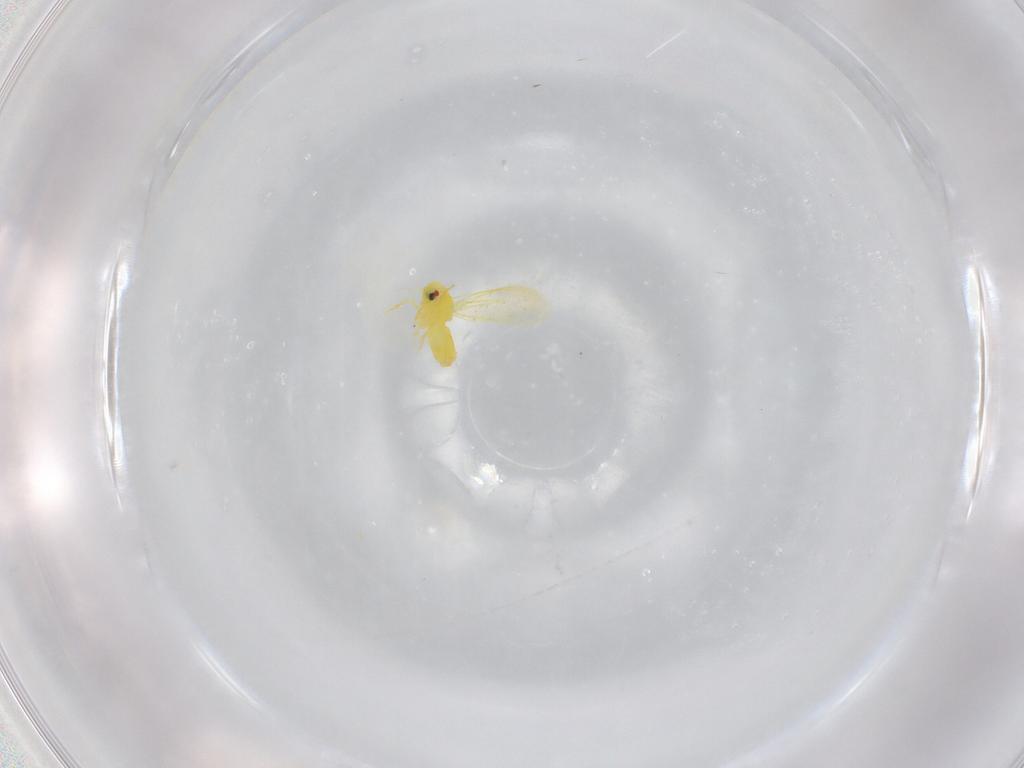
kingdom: Animalia
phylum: Arthropoda
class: Insecta
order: Hemiptera
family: Aleyrodidae
